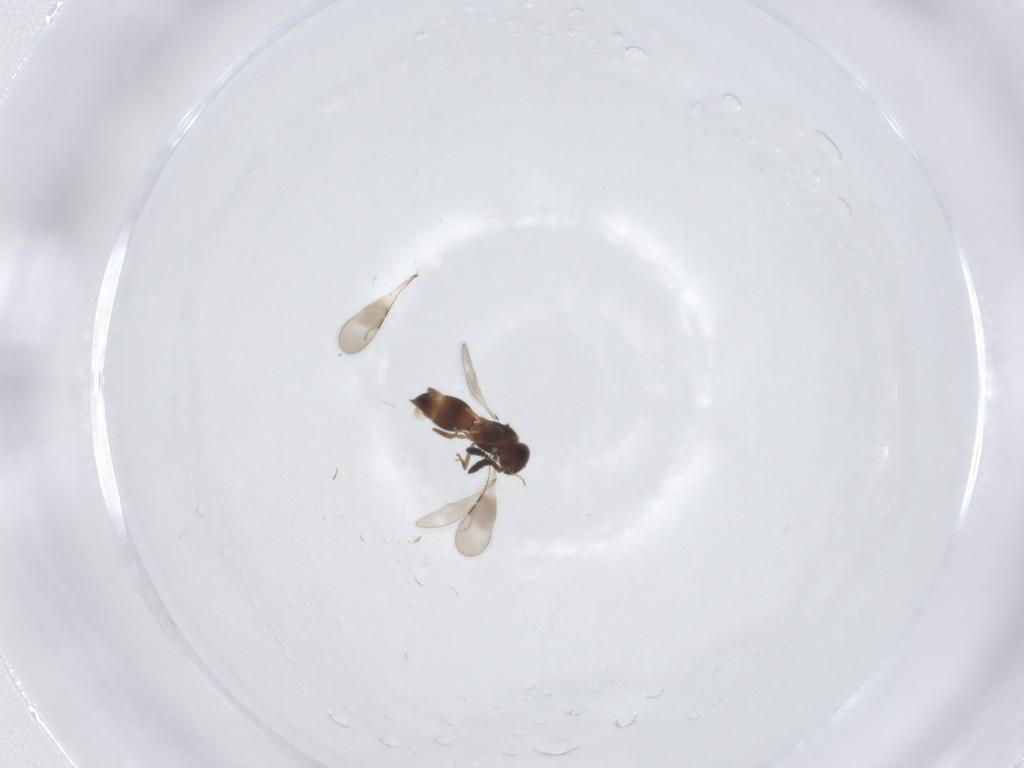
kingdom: Animalia
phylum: Arthropoda
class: Insecta
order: Hymenoptera
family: Ceraphronidae
